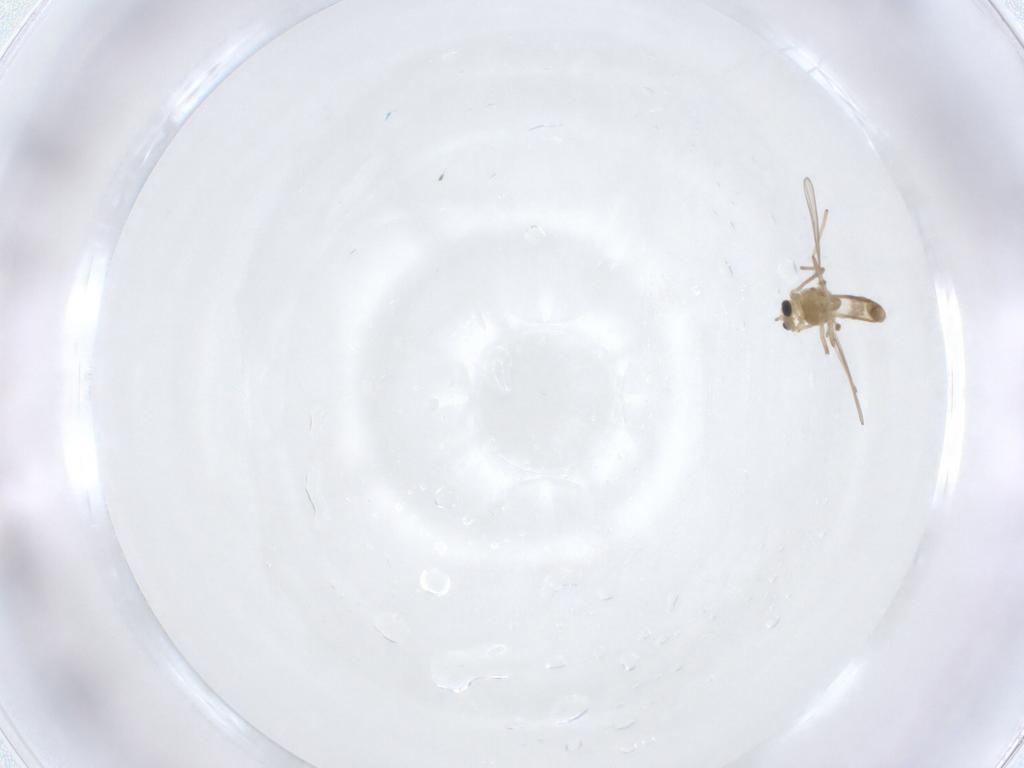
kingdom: Animalia
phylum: Arthropoda
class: Insecta
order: Diptera
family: Chironomidae
